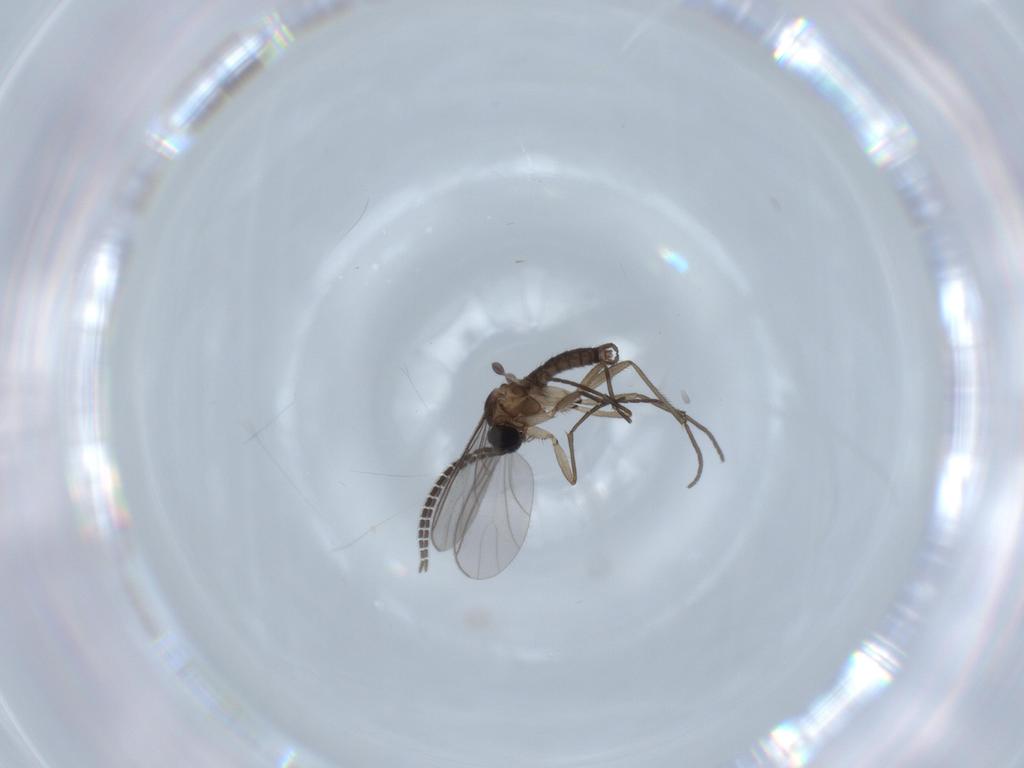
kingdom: Animalia
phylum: Arthropoda
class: Insecta
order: Diptera
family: Sciaridae
